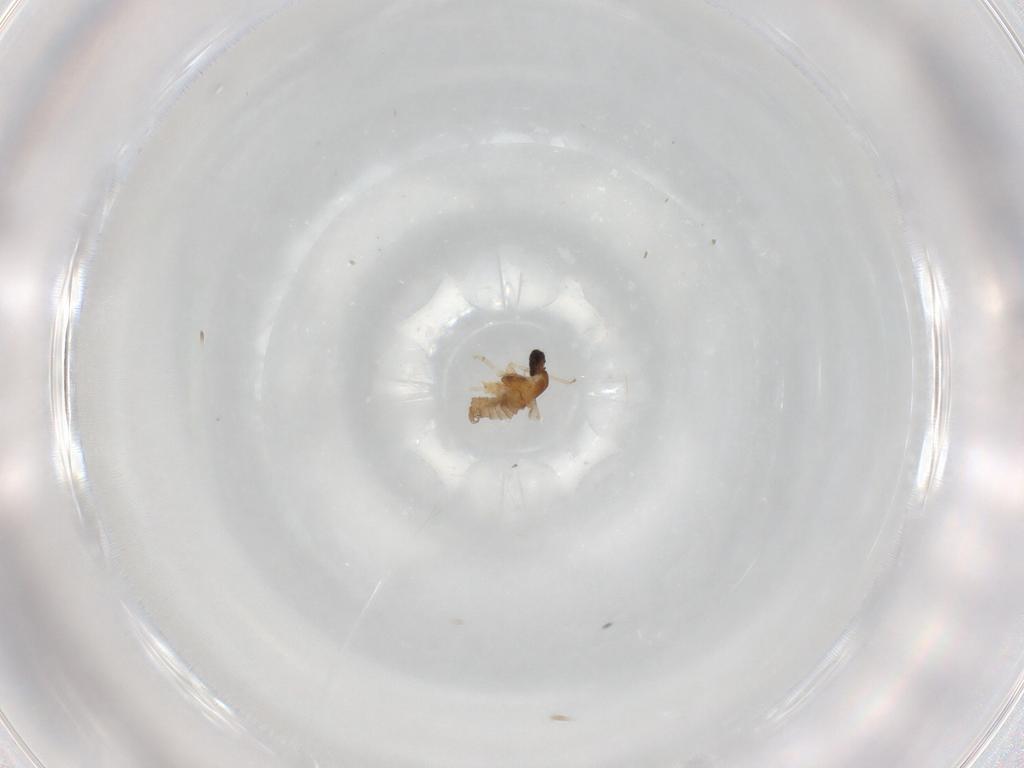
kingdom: Animalia
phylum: Arthropoda
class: Insecta
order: Diptera
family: Cecidomyiidae
